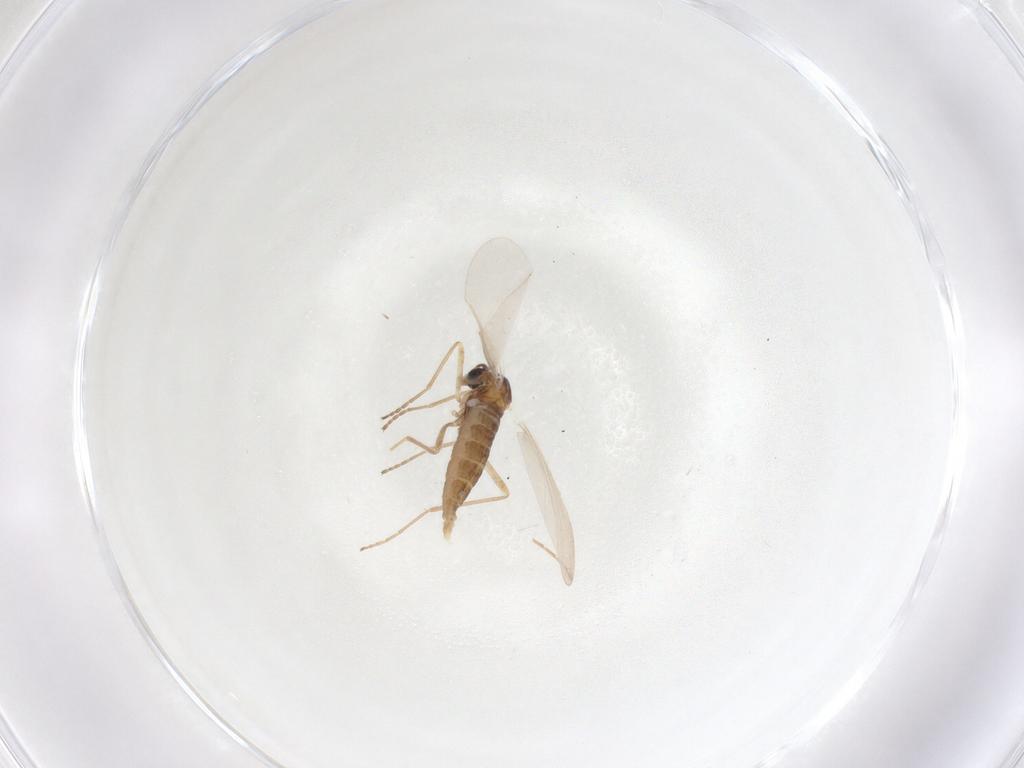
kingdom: Animalia
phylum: Arthropoda
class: Insecta
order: Diptera
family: Cecidomyiidae
